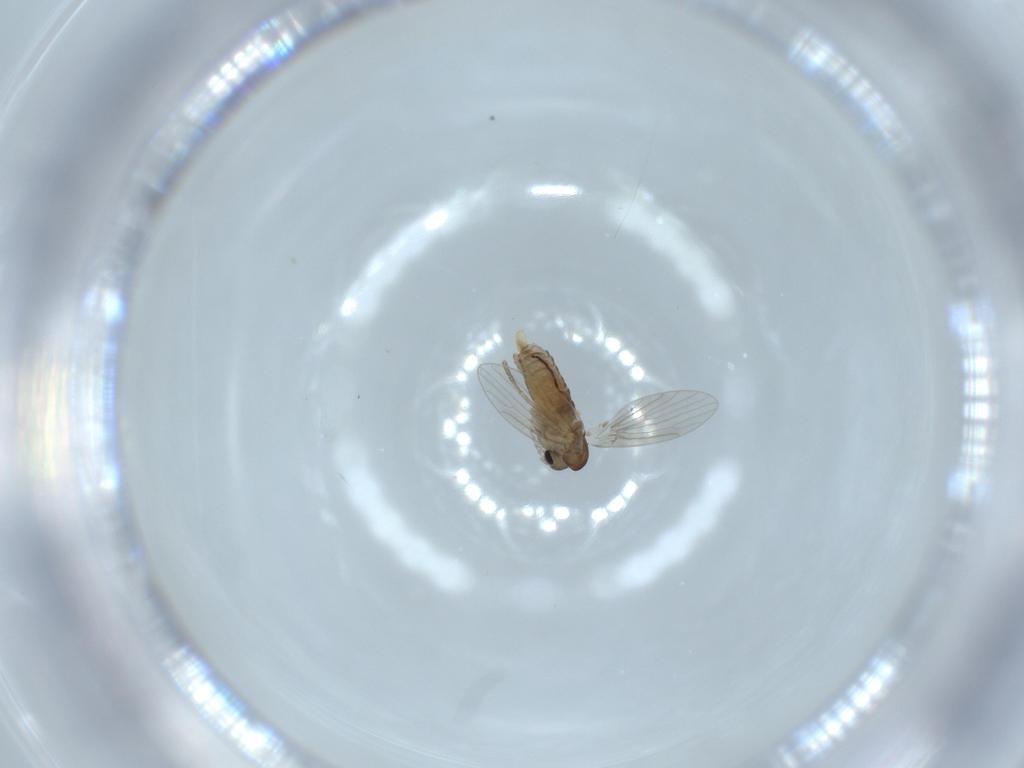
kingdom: Animalia
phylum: Arthropoda
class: Insecta
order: Diptera
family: Psychodidae
